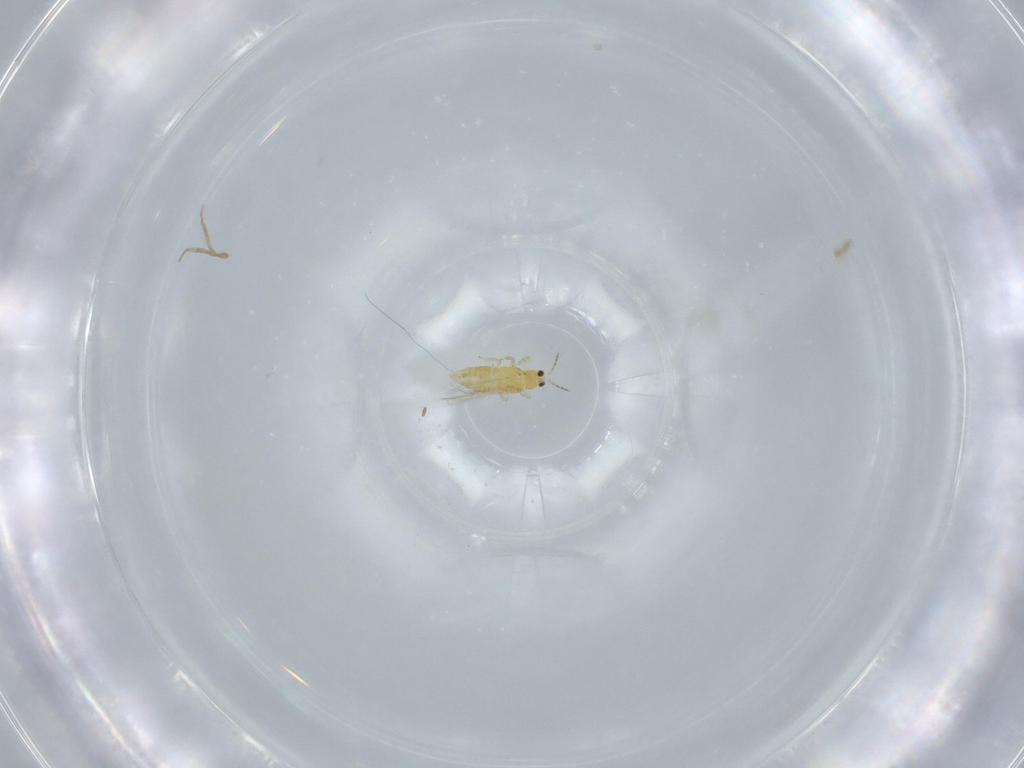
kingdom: Animalia
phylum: Arthropoda
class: Insecta
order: Thysanoptera
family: Thripidae
